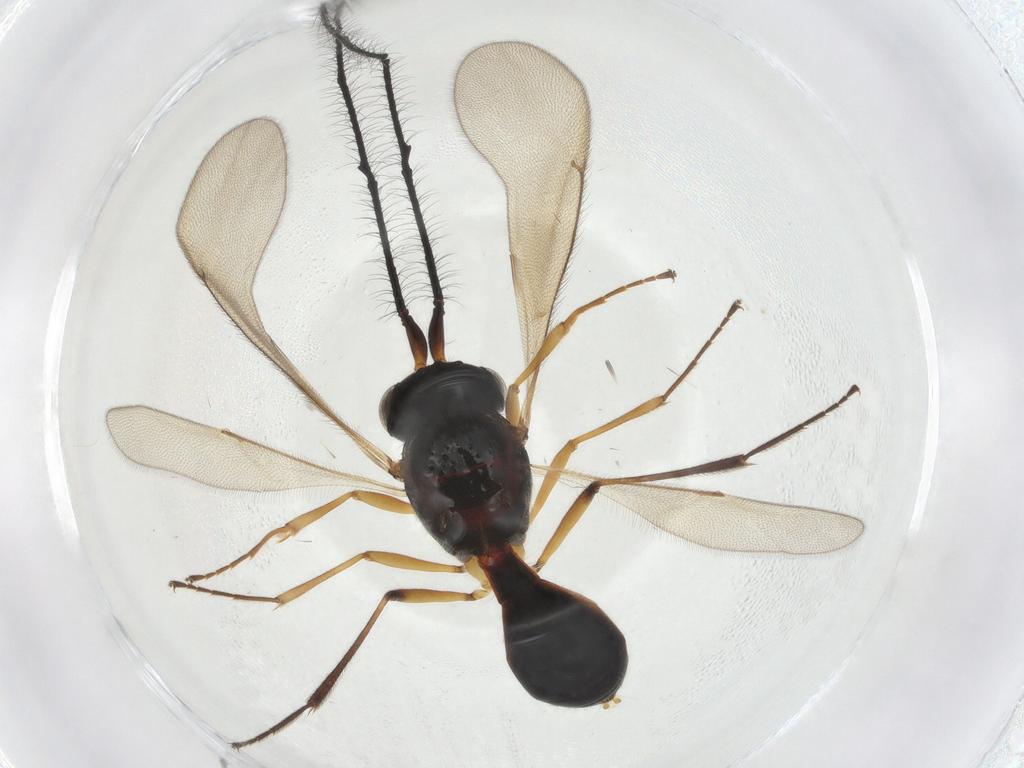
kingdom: Animalia
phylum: Arthropoda
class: Insecta
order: Hymenoptera
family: Scelionidae
